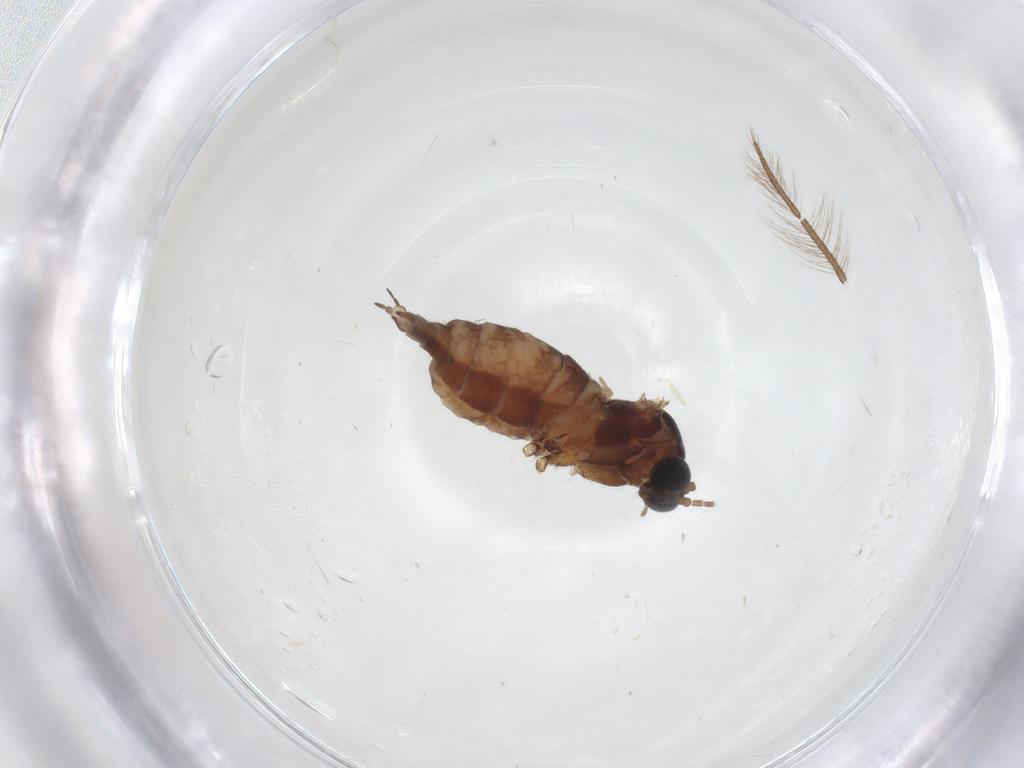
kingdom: Animalia
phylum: Arthropoda
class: Insecta
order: Diptera
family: Culicidae
